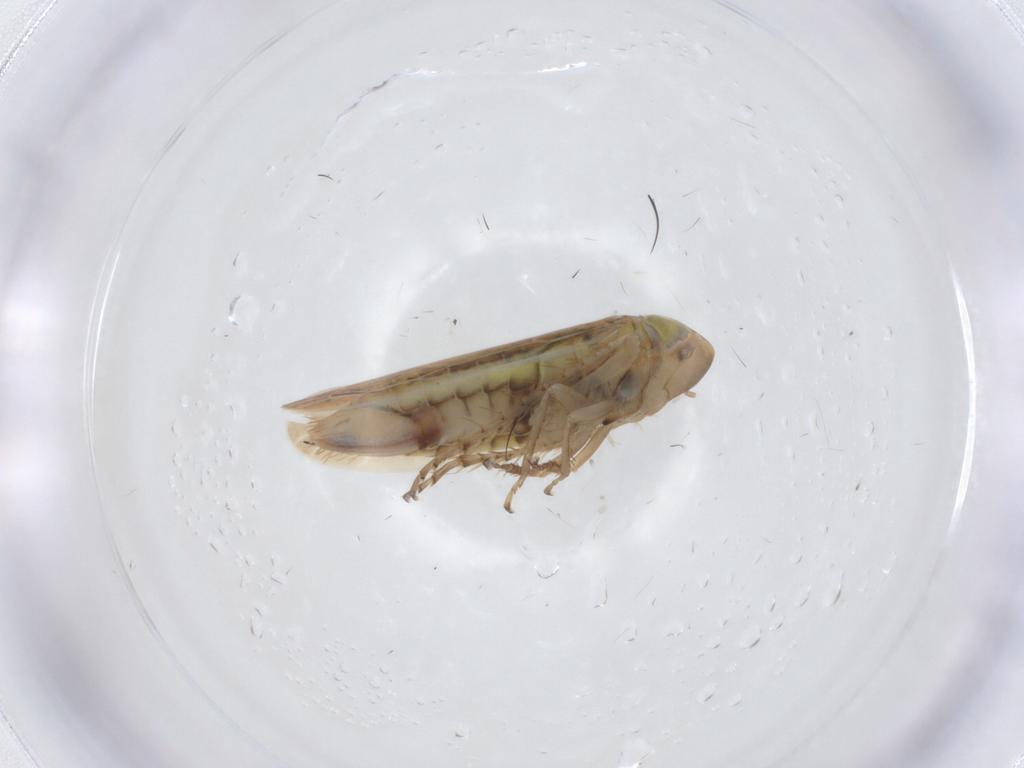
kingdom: Animalia
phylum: Arthropoda
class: Insecta
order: Hemiptera
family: Cicadellidae
